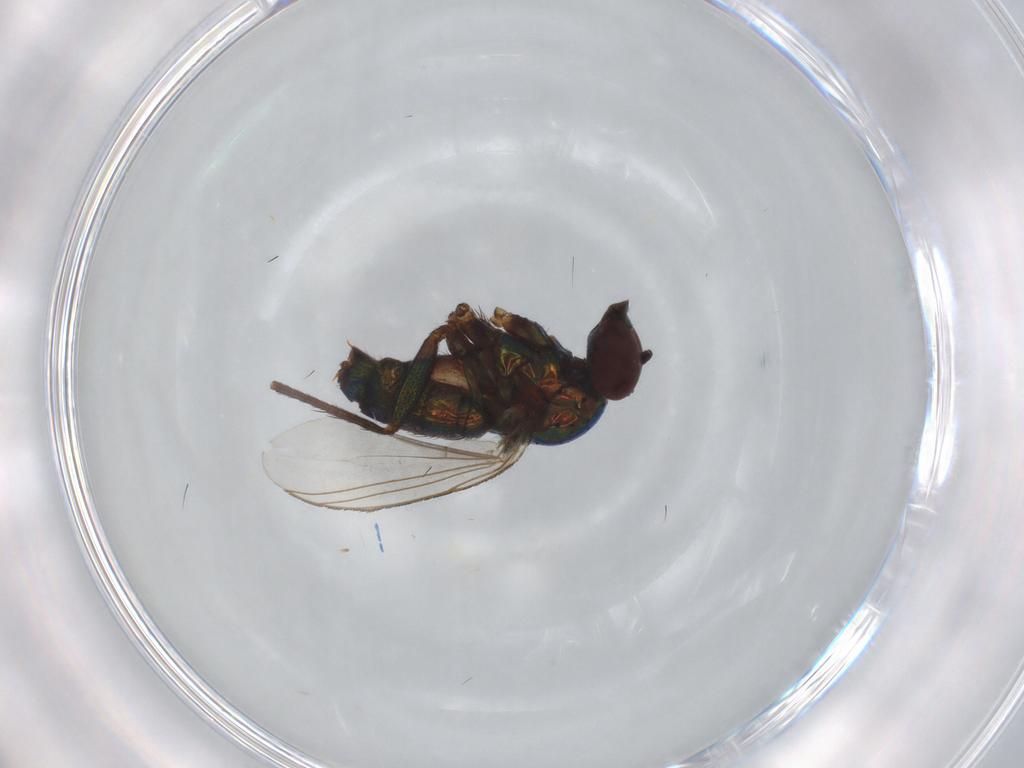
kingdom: Animalia
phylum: Arthropoda
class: Insecta
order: Diptera
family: Dolichopodidae
